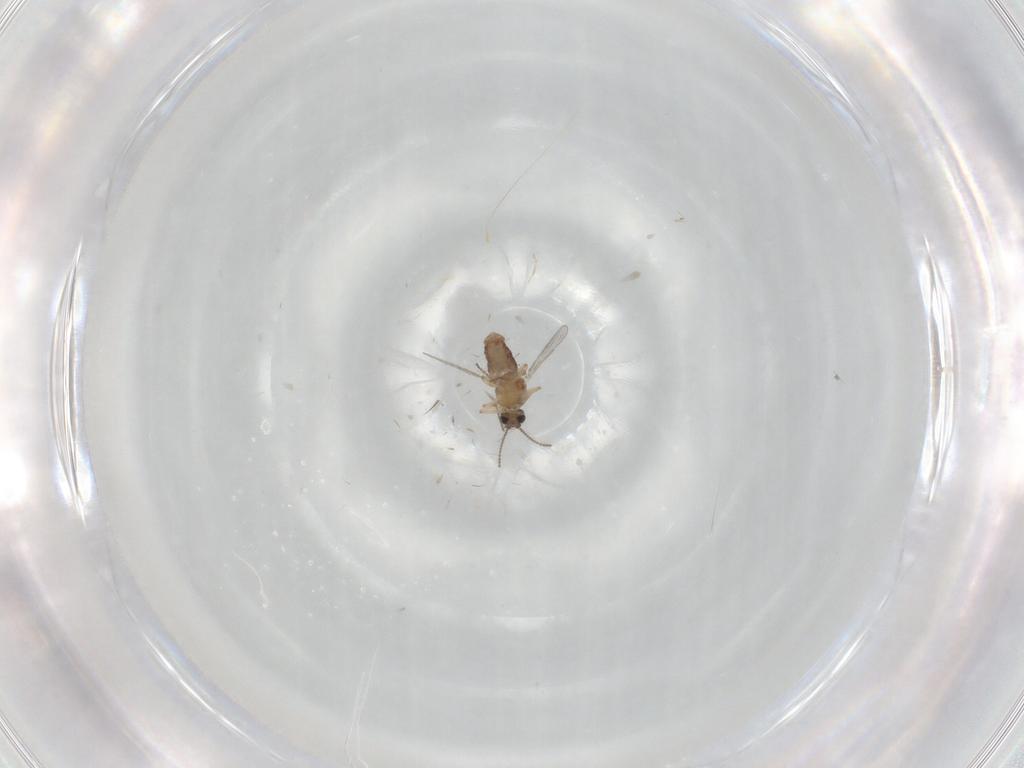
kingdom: Animalia
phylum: Arthropoda
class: Insecta
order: Diptera
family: Ceratopogonidae
